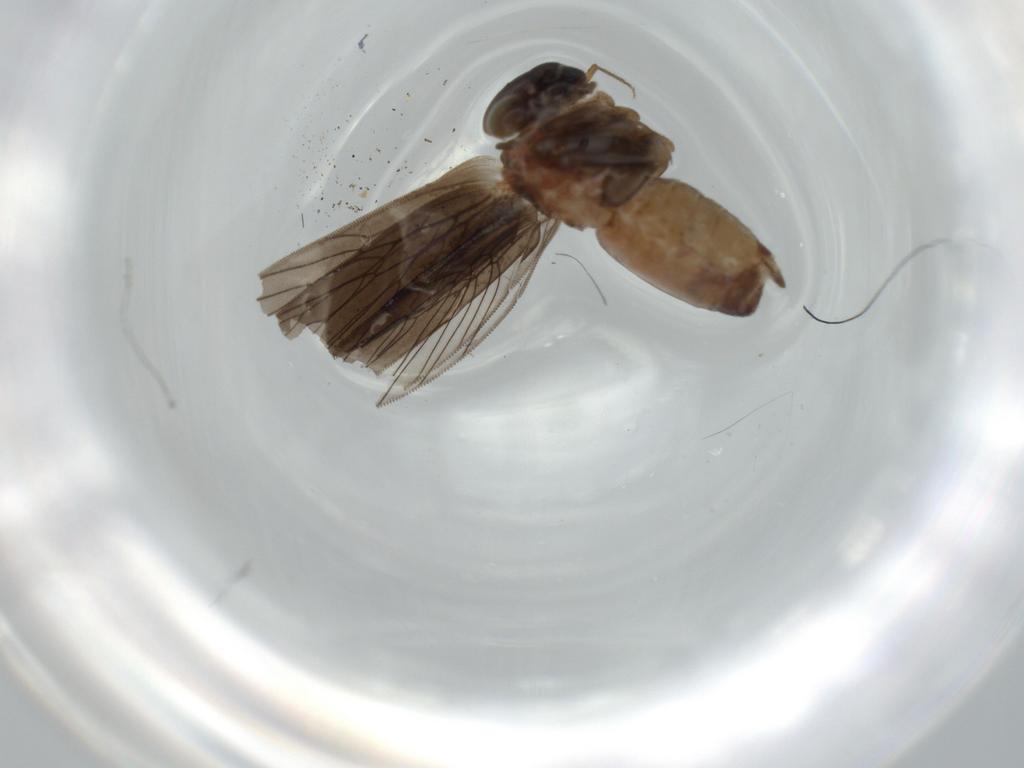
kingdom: Animalia
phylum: Arthropoda
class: Insecta
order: Psocodea
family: Lepidopsocidae
